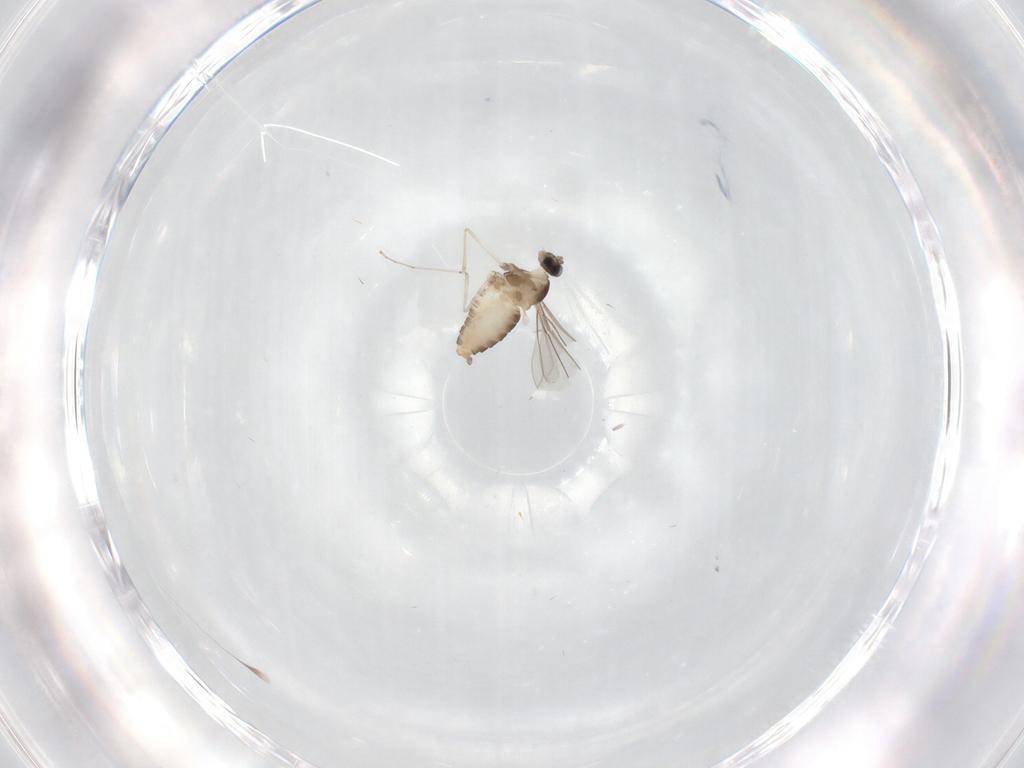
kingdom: Animalia
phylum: Arthropoda
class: Insecta
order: Diptera
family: Cecidomyiidae
